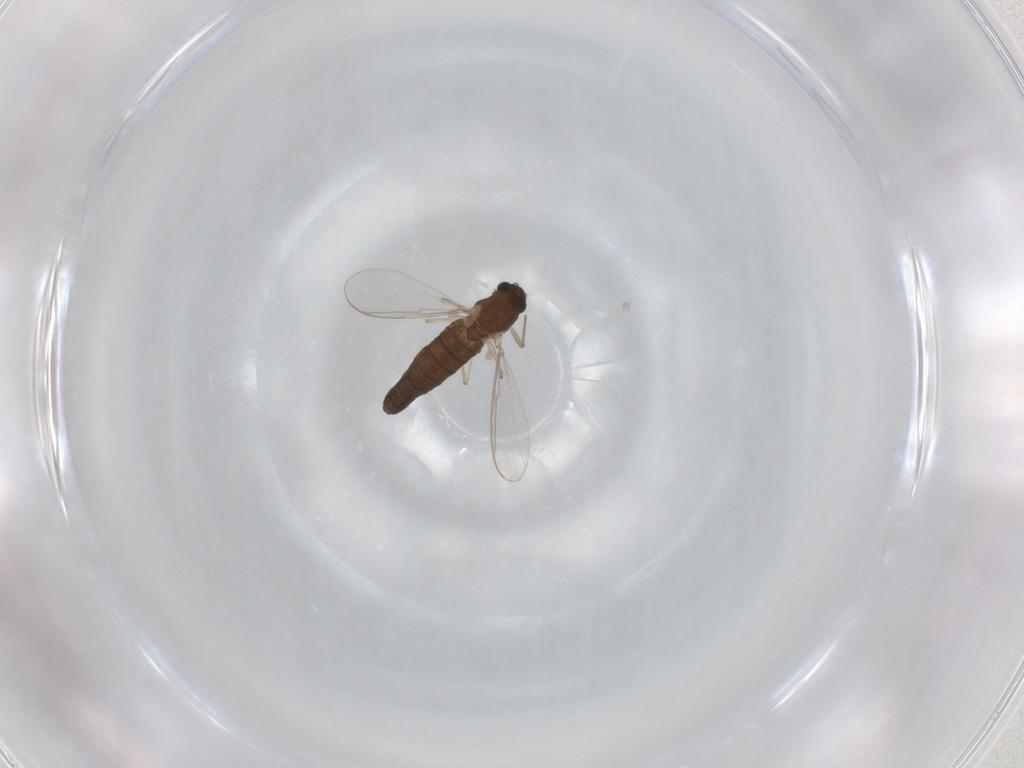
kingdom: Animalia
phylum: Arthropoda
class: Insecta
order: Diptera
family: Chironomidae
